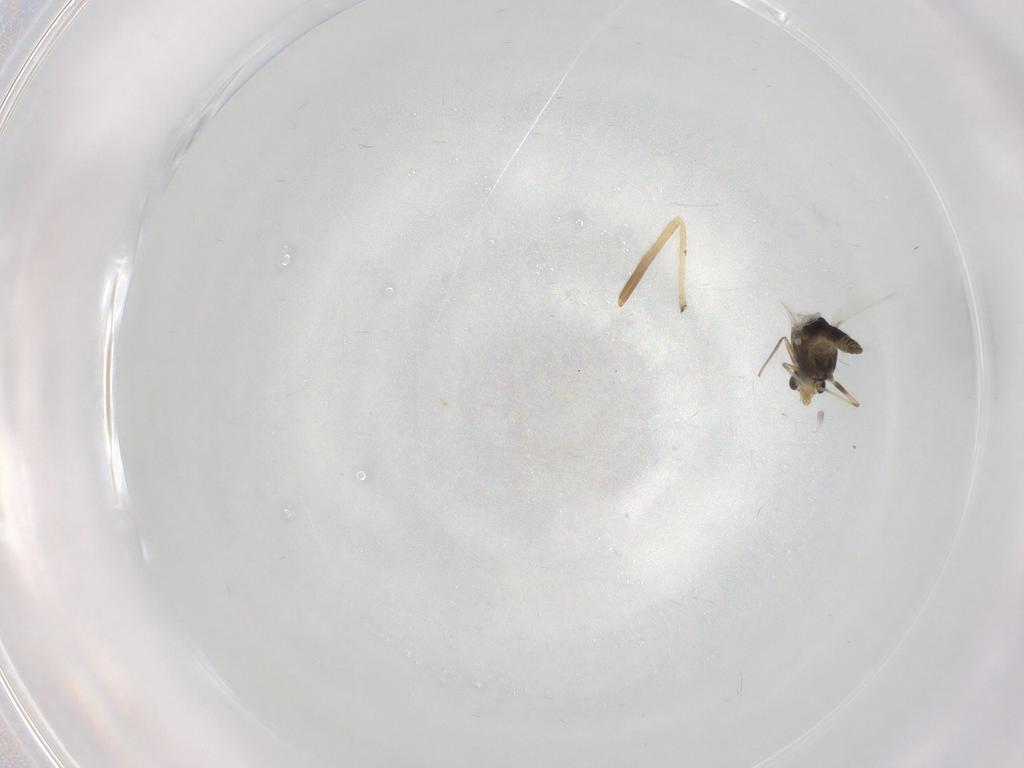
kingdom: Animalia
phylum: Arthropoda
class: Insecta
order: Diptera
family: Chironomidae
